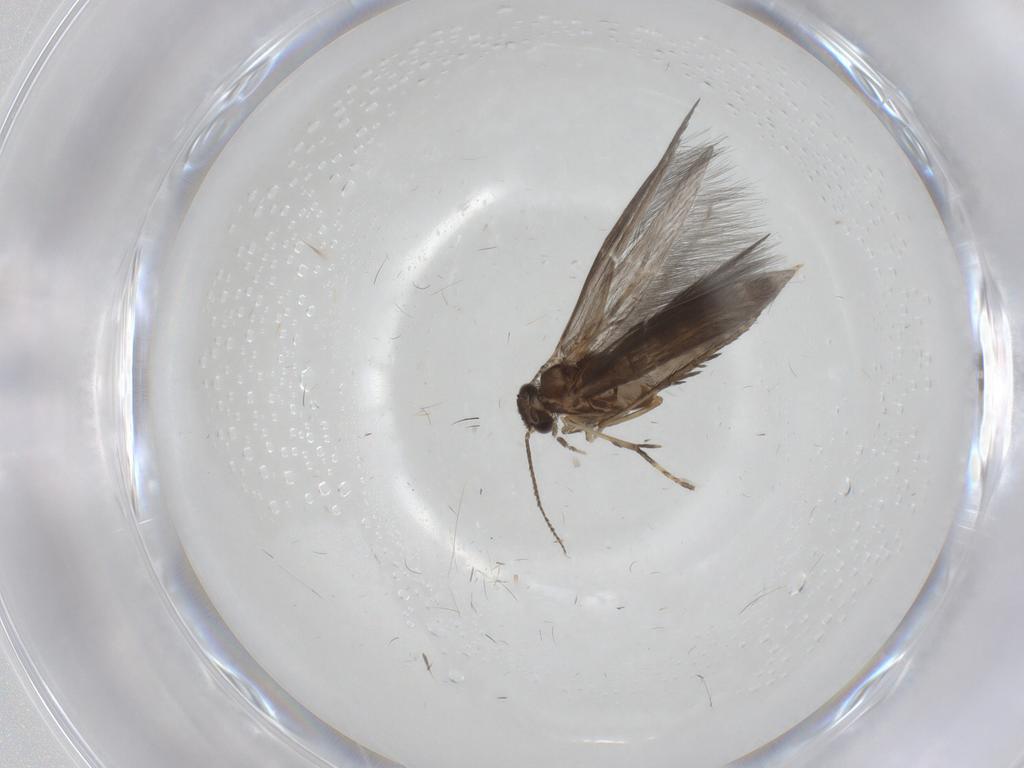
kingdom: Animalia
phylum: Arthropoda
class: Insecta
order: Trichoptera
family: Hydroptilidae
